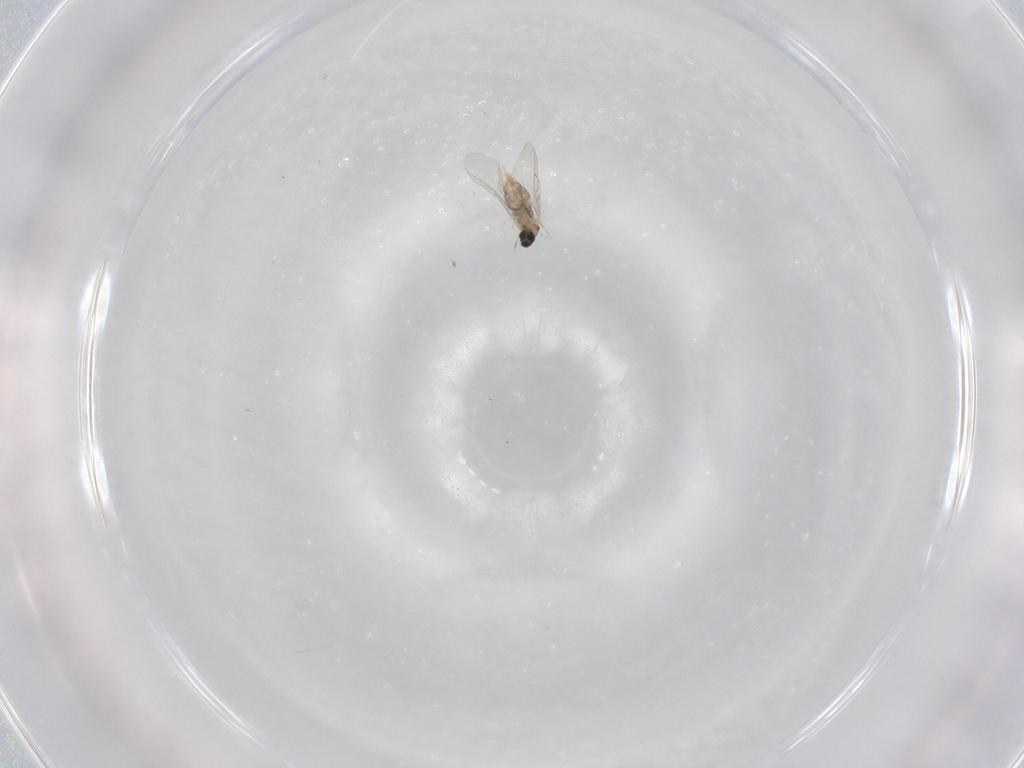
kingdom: Animalia
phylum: Arthropoda
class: Insecta
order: Diptera
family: Cecidomyiidae
